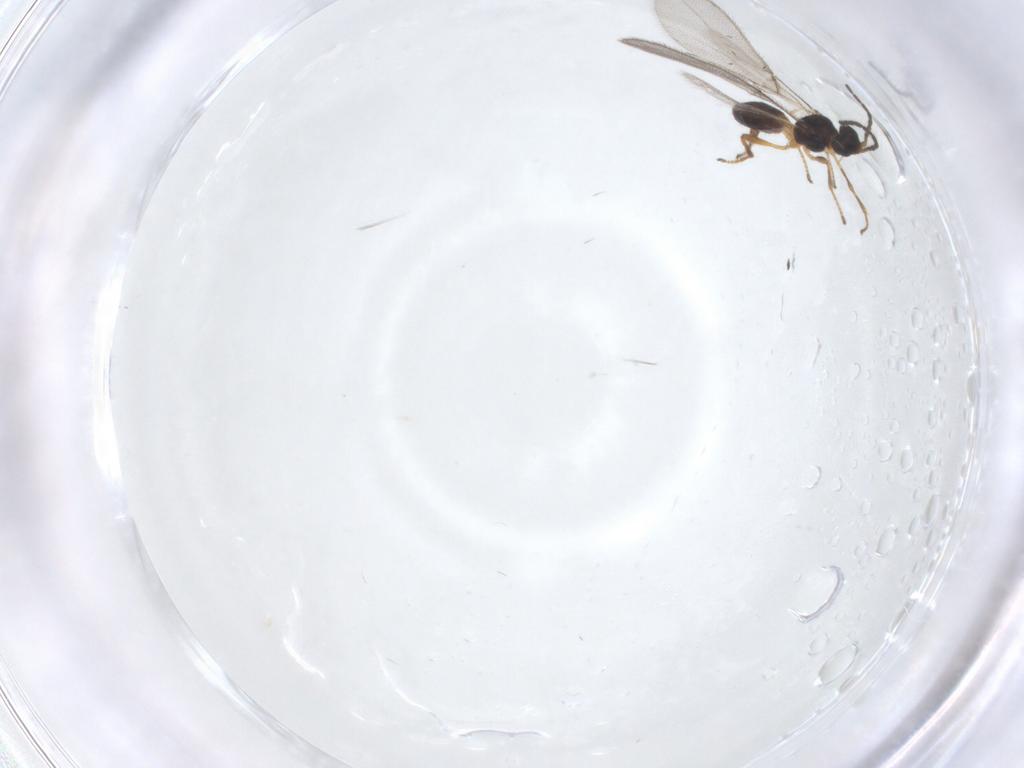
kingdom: Animalia
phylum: Arthropoda
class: Insecta
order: Hymenoptera
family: Braconidae
